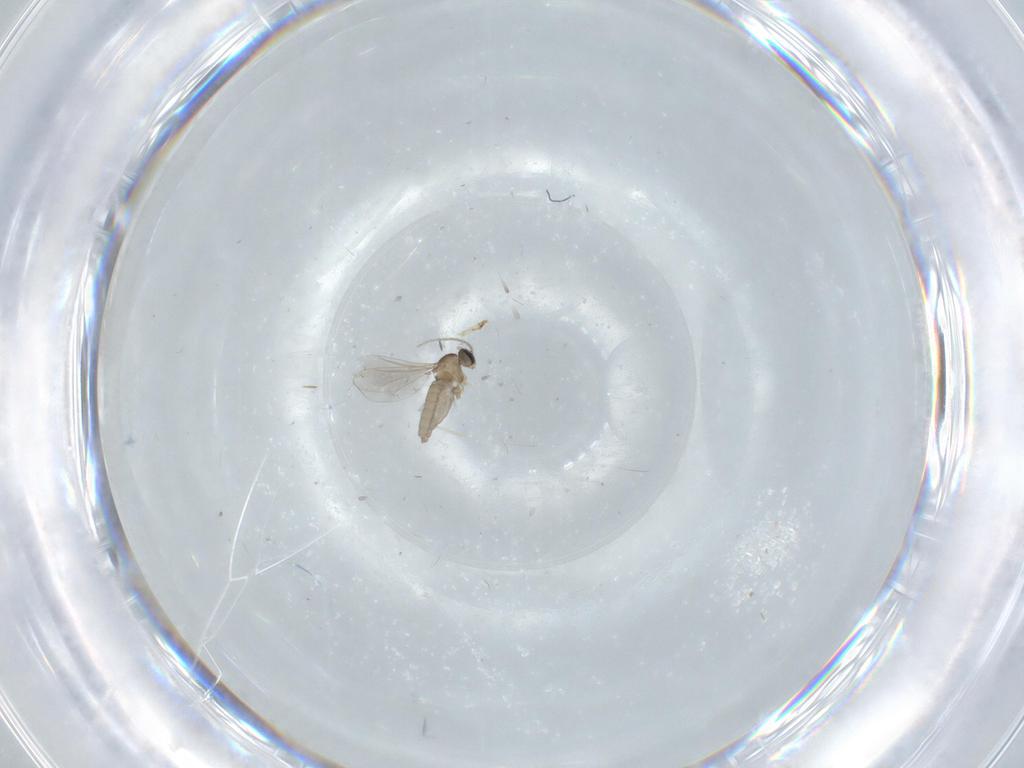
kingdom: Animalia
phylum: Arthropoda
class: Insecta
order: Diptera
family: Cecidomyiidae
